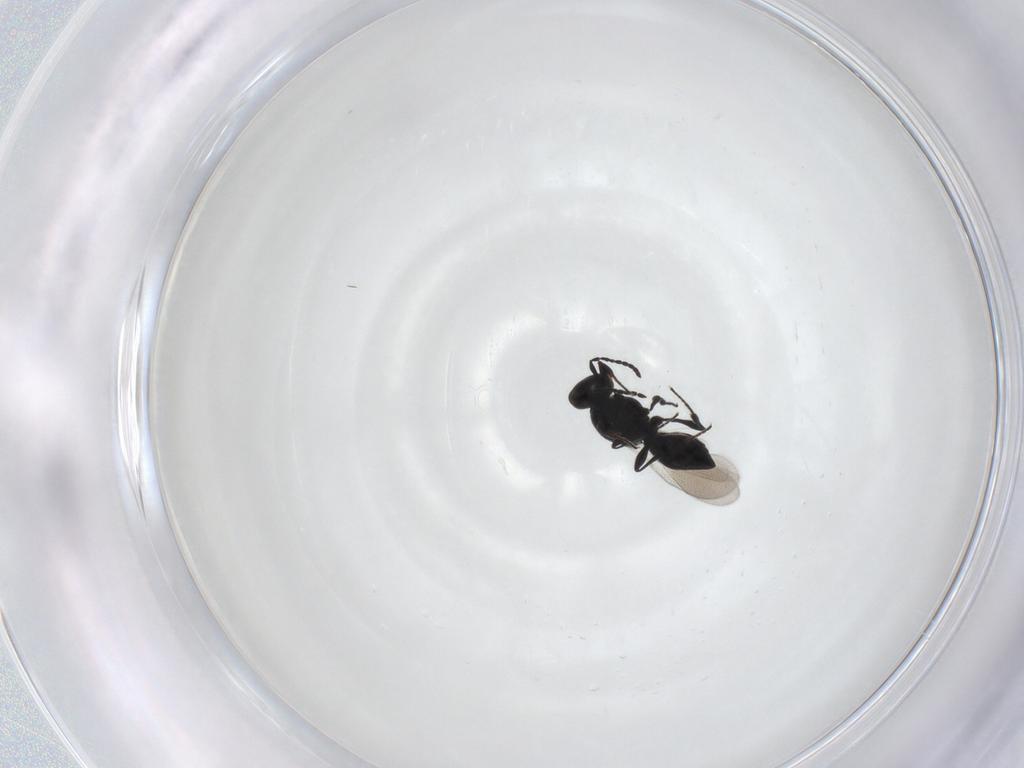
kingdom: Animalia
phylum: Arthropoda
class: Insecta
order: Hymenoptera
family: Platygastridae
